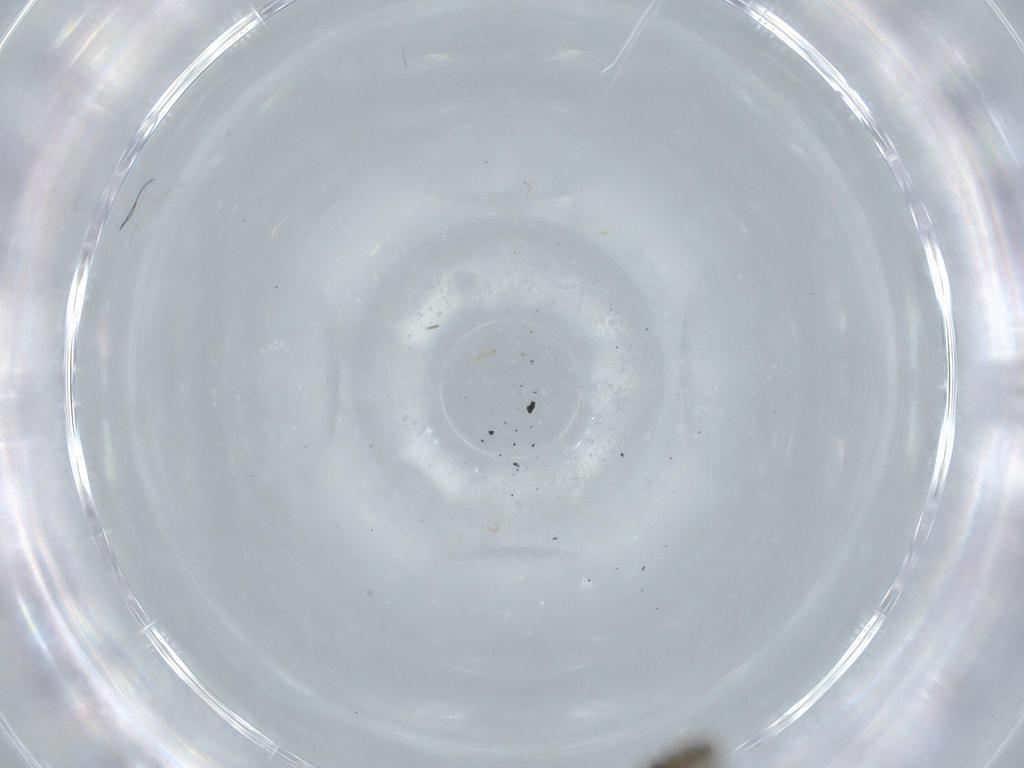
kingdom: Animalia
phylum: Arthropoda
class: Insecta
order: Diptera
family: Psychodidae
